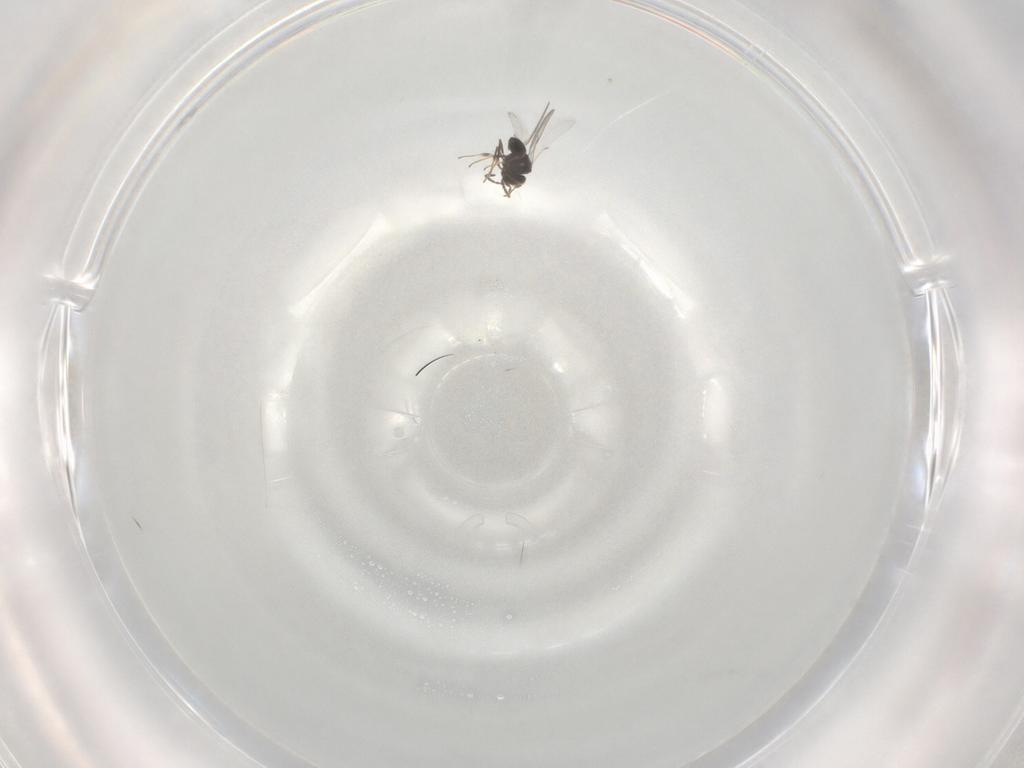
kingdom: Animalia
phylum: Arthropoda
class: Insecta
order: Hymenoptera
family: Scelionidae
